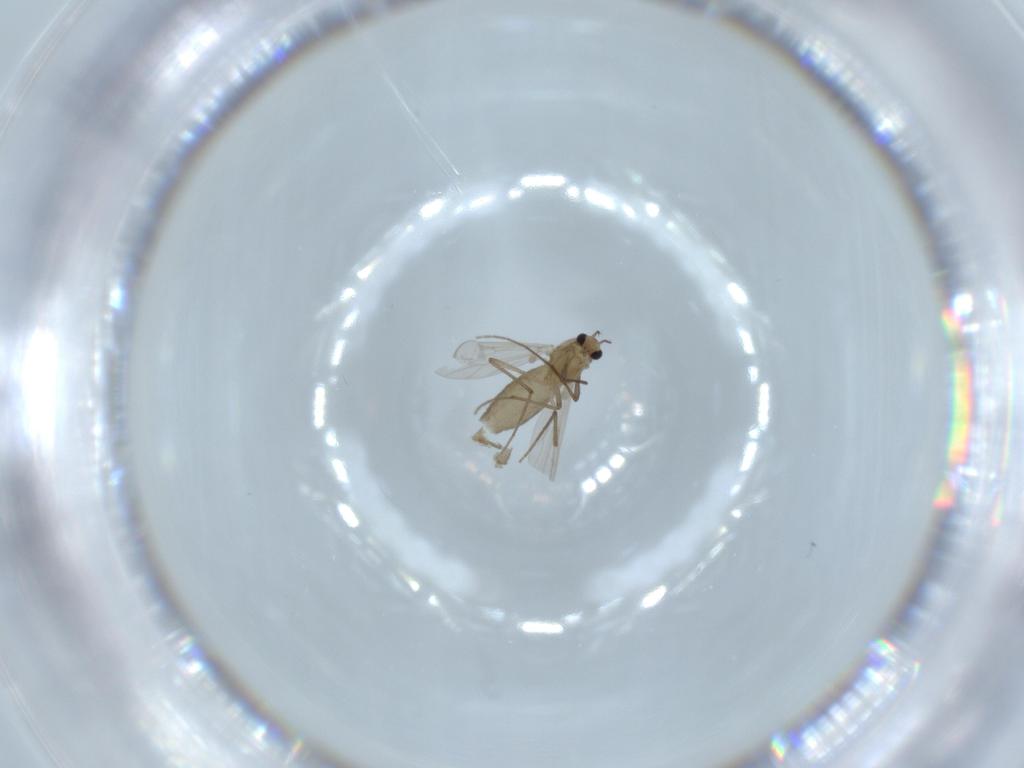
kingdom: Animalia
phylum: Arthropoda
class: Insecta
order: Diptera
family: Chironomidae
